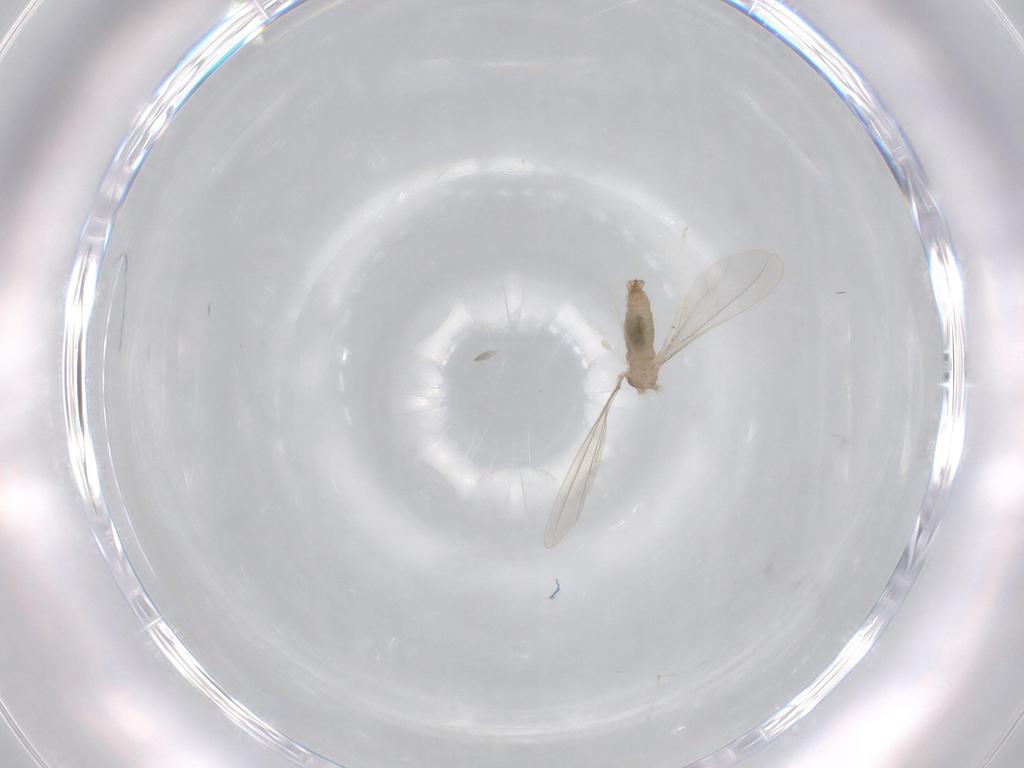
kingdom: Animalia
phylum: Arthropoda
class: Insecta
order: Diptera
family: Cecidomyiidae
